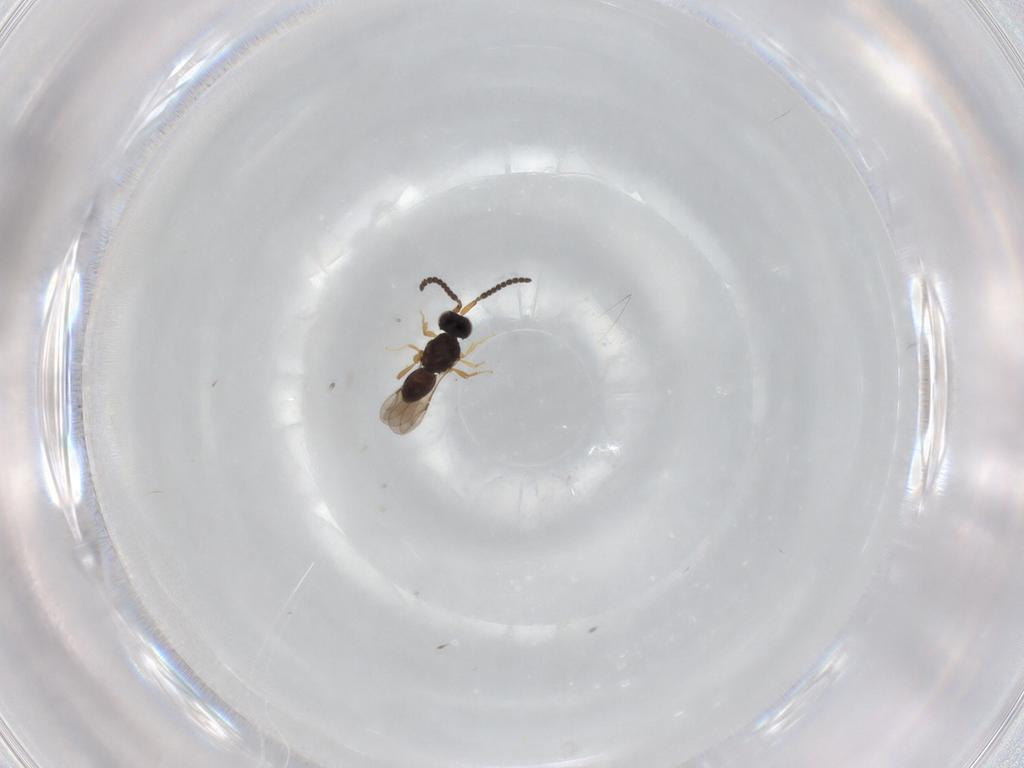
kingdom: Animalia
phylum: Arthropoda
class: Insecta
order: Hymenoptera
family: Ceraphronidae
